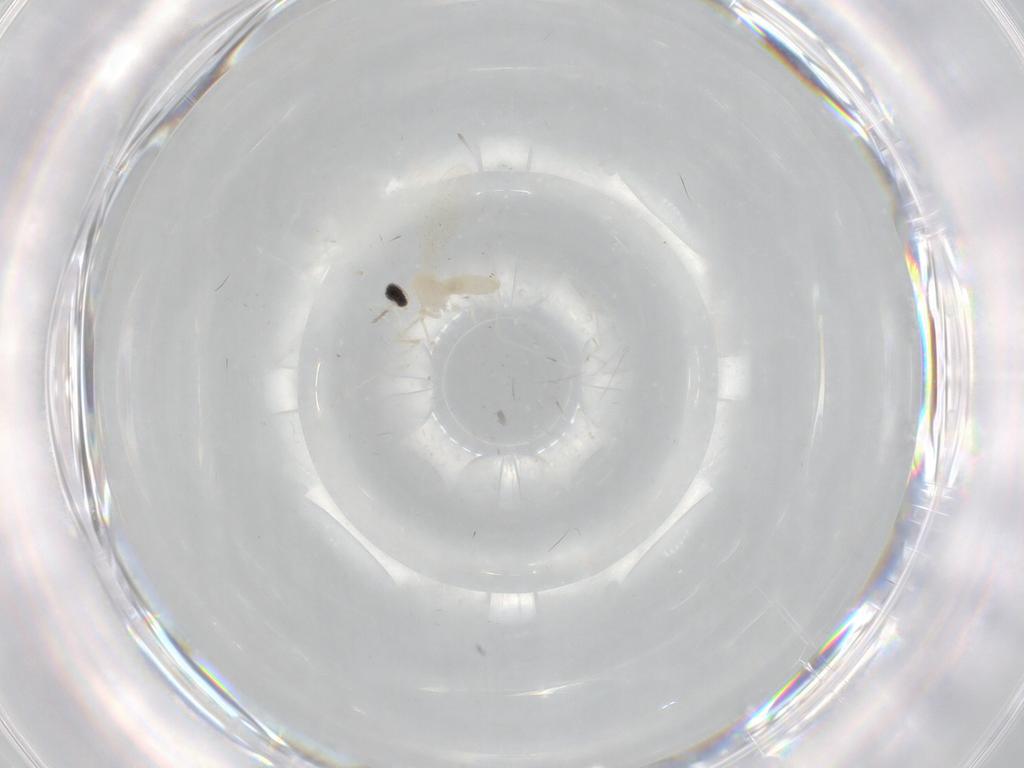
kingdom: Animalia
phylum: Arthropoda
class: Insecta
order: Diptera
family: Cecidomyiidae
